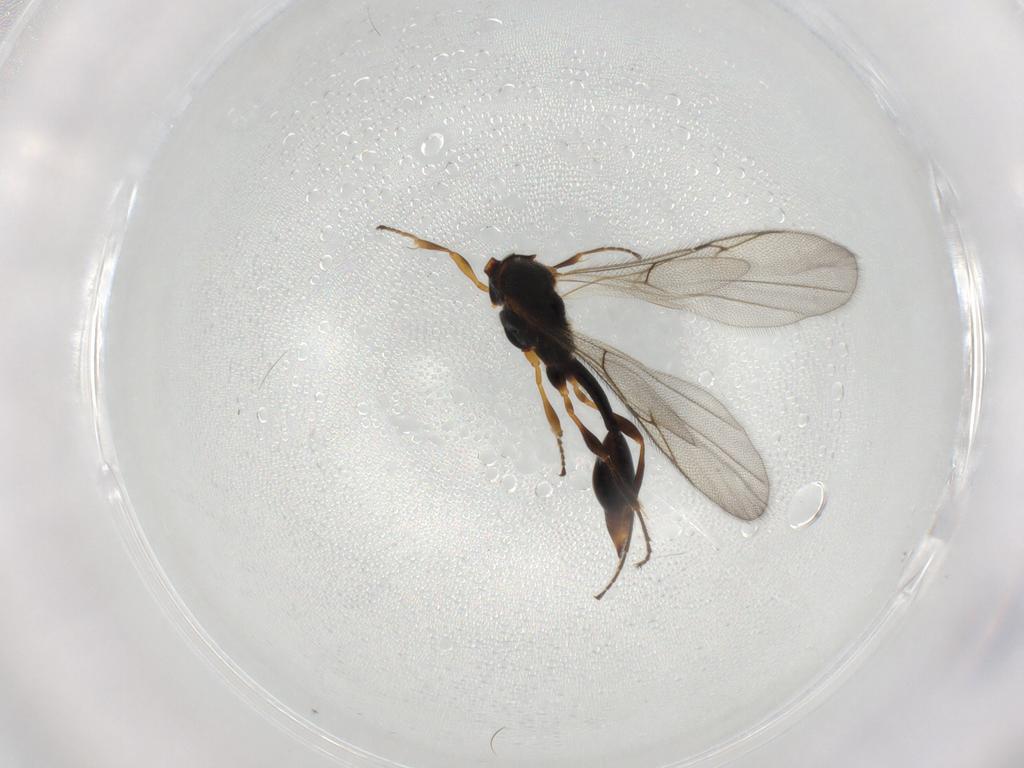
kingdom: Animalia
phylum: Arthropoda
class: Insecta
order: Hymenoptera
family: Diapriidae
